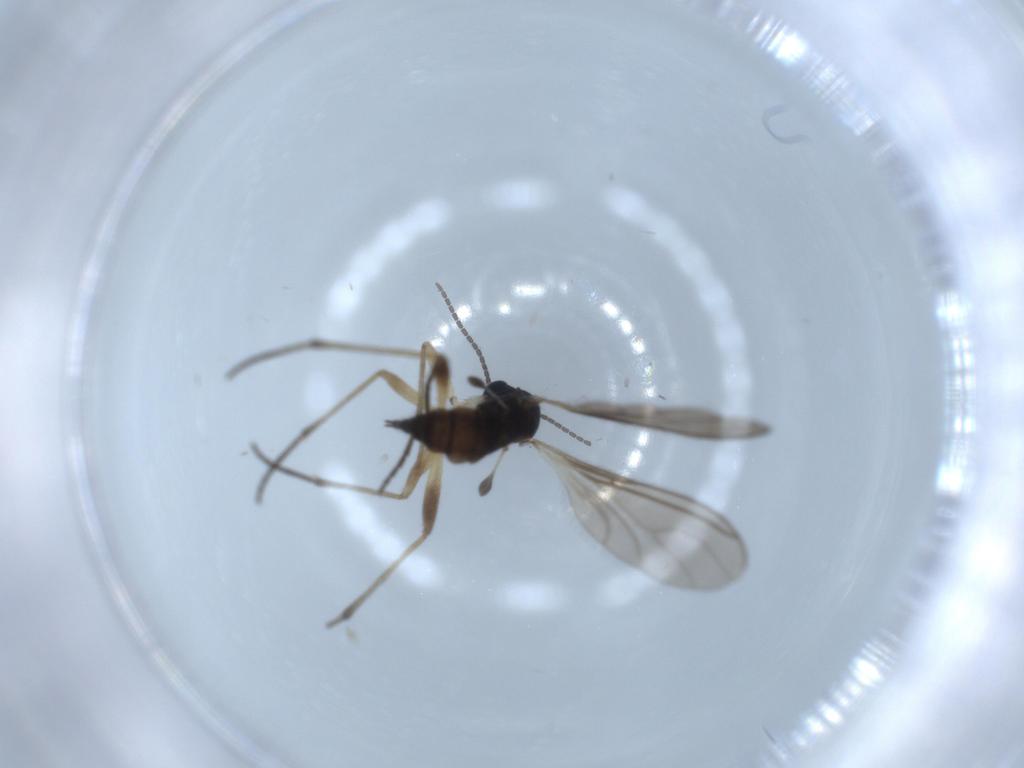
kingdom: Animalia
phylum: Arthropoda
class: Insecta
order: Diptera
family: Sciaridae
